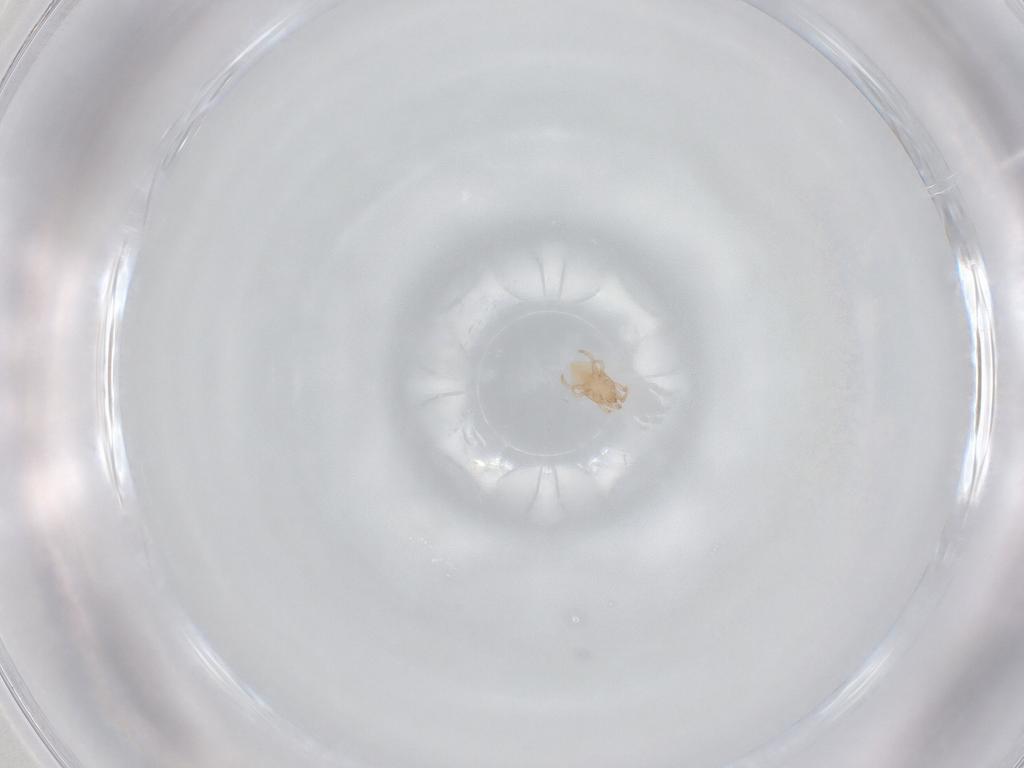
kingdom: Animalia
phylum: Arthropoda
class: Arachnida
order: Mesostigmata
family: Laelapidae
